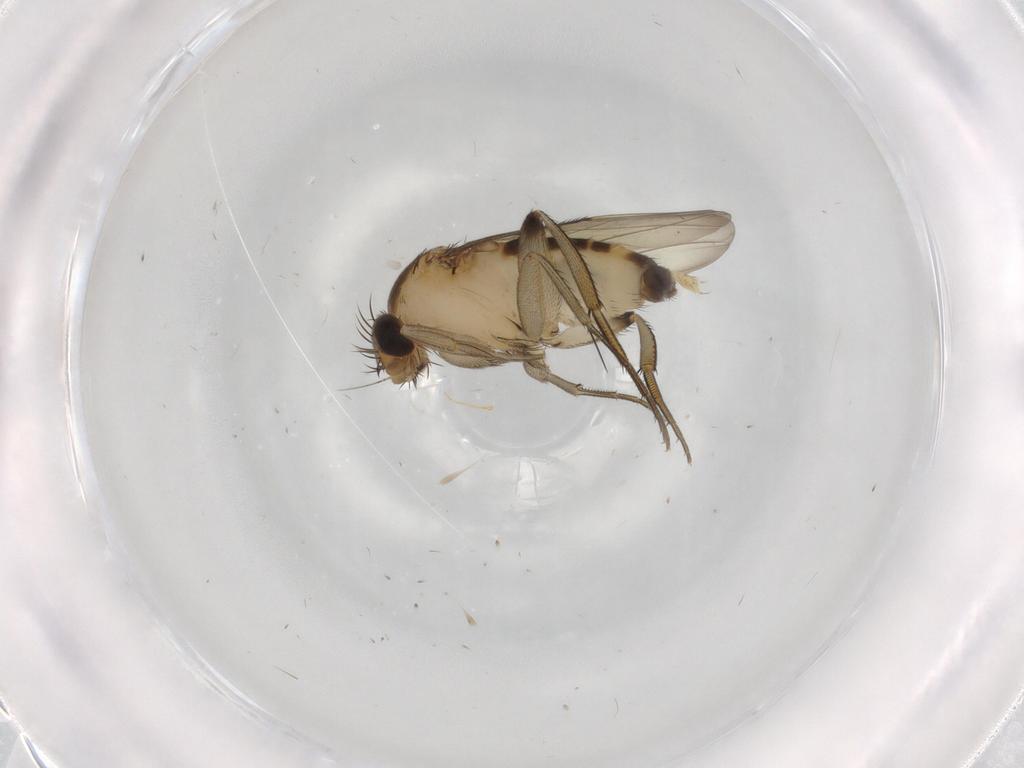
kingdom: Animalia
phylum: Arthropoda
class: Insecta
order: Diptera
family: Phoridae
